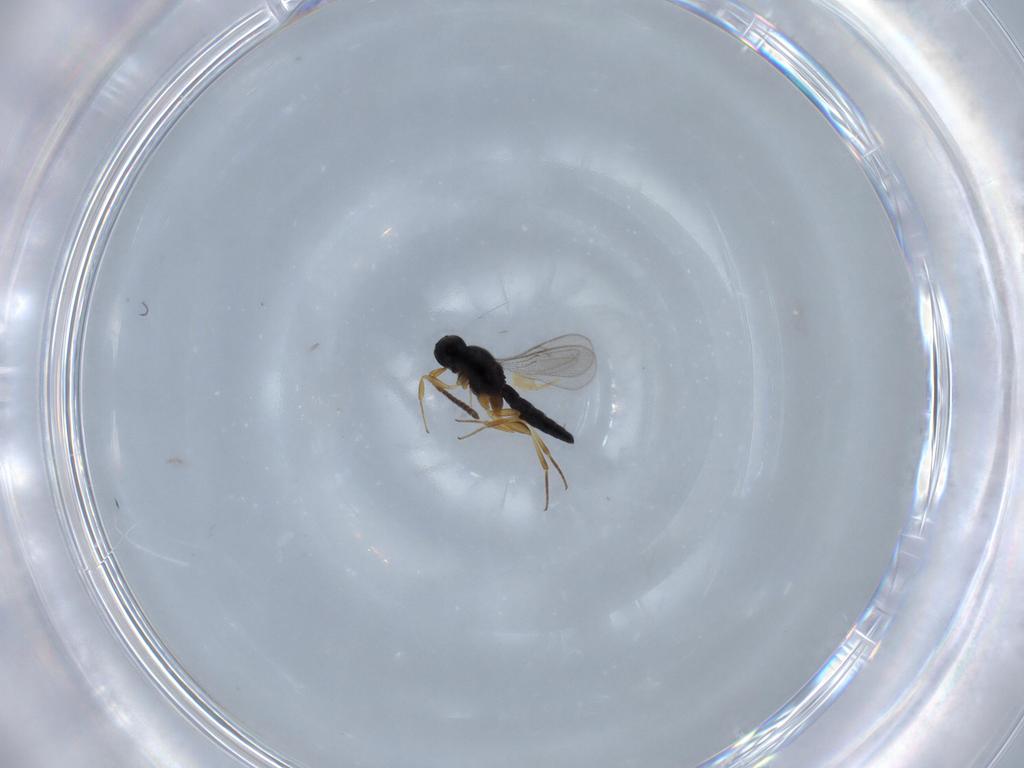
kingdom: Animalia
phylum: Arthropoda
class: Insecta
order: Hymenoptera
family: Scelionidae
